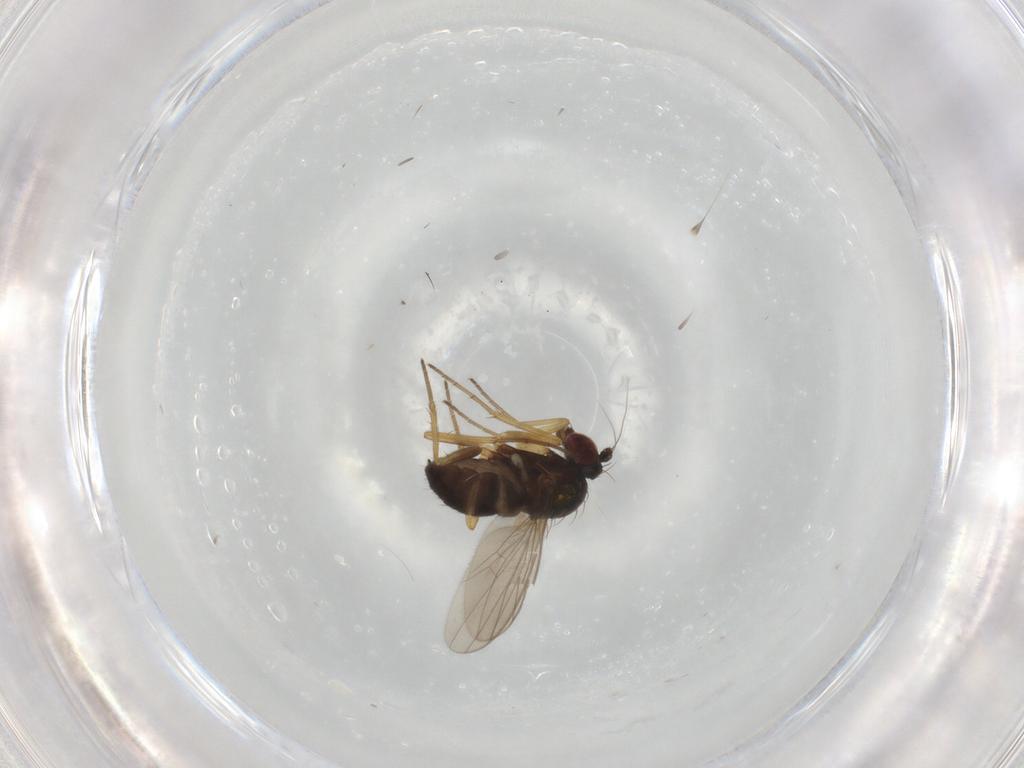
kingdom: Animalia
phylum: Arthropoda
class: Insecta
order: Diptera
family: Dolichopodidae
